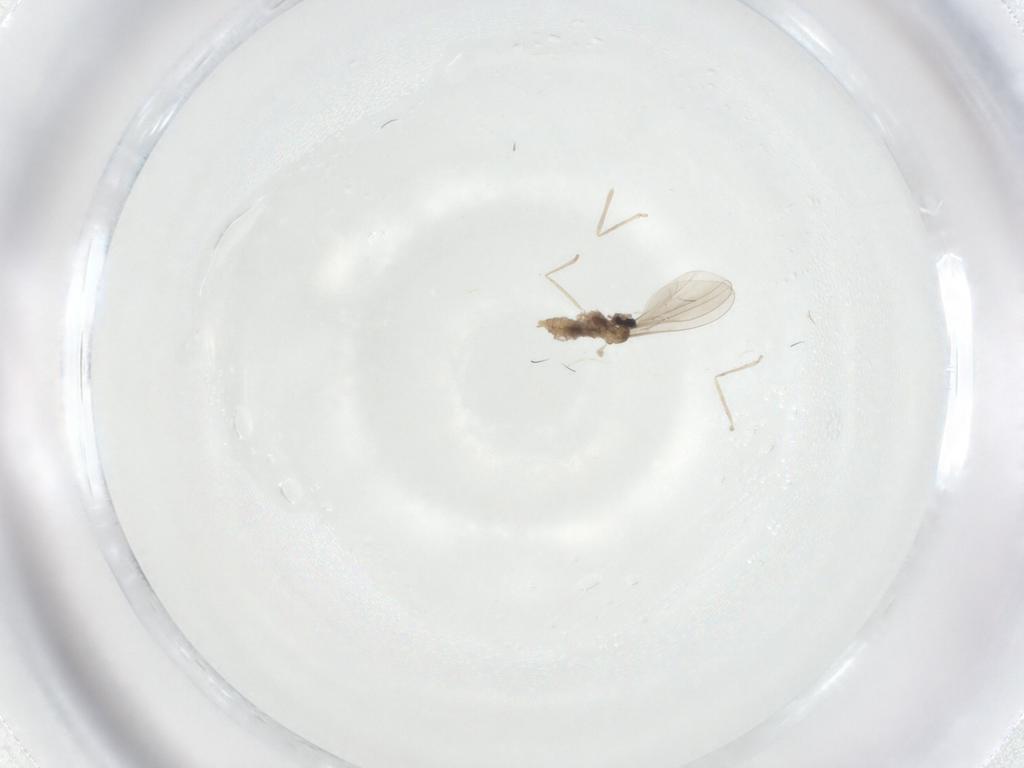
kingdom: Animalia
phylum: Arthropoda
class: Insecta
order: Diptera
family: Cecidomyiidae
